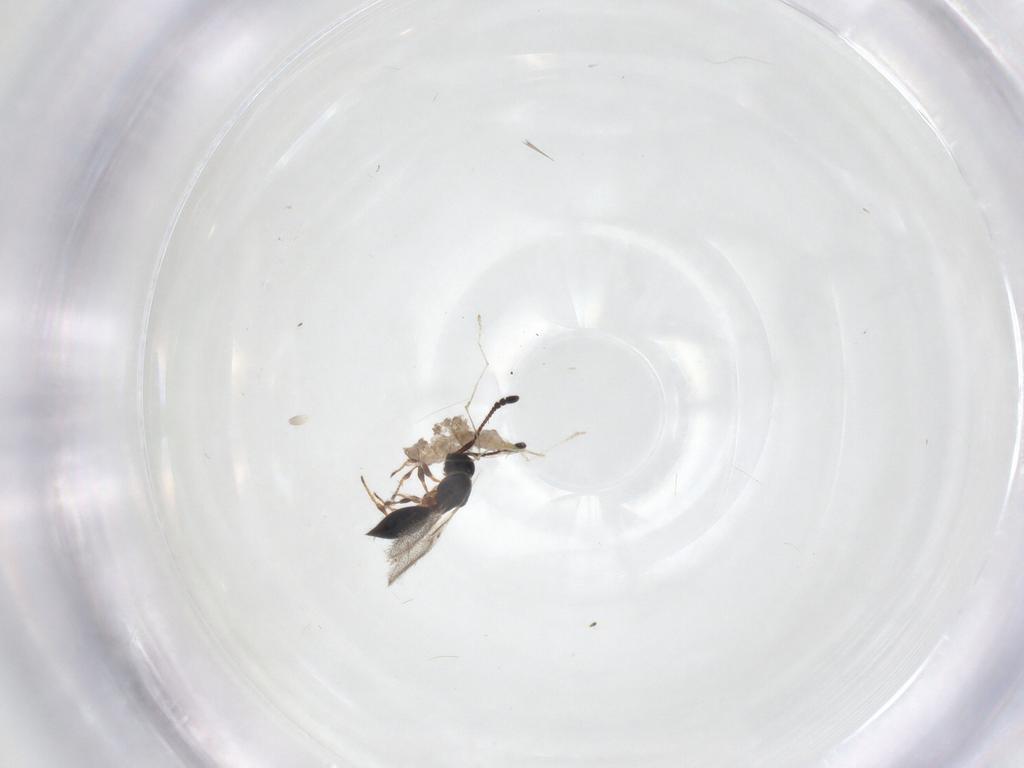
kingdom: Animalia
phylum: Arthropoda
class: Insecta
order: Diptera
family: Cecidomyiidae
